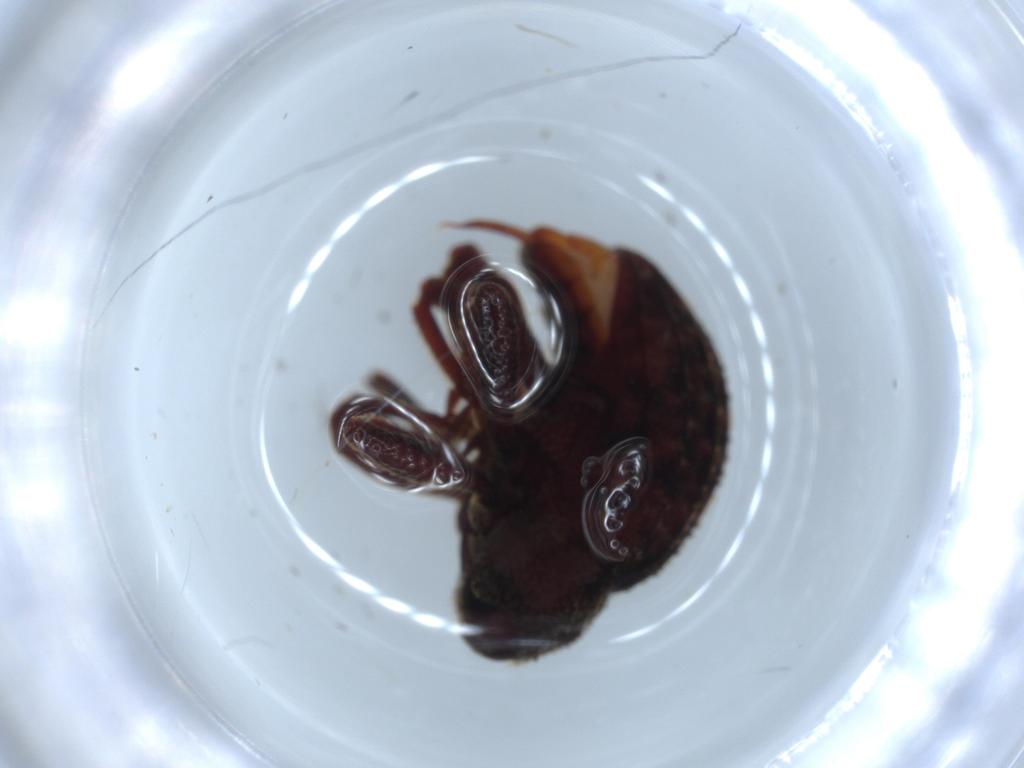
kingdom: Animalia
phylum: Arthropoda
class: Insecta
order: Coleoptera
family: Curculionidae
